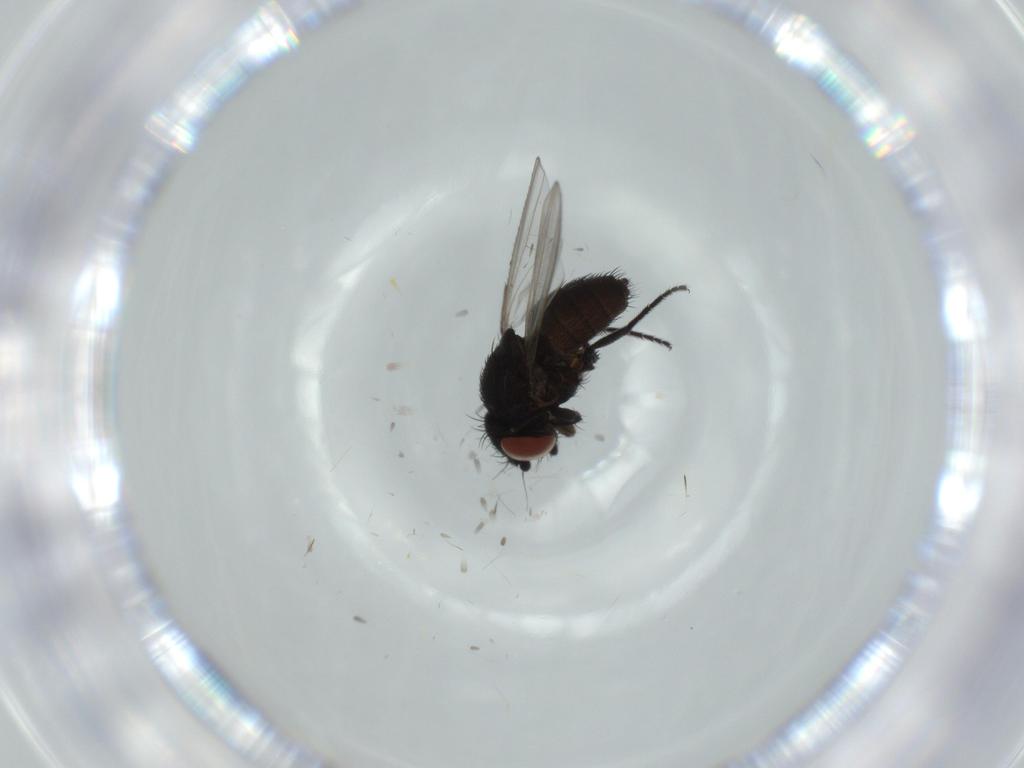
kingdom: Animalia
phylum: Arthropoda
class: Insecta
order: Diptera
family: Milichiidae
